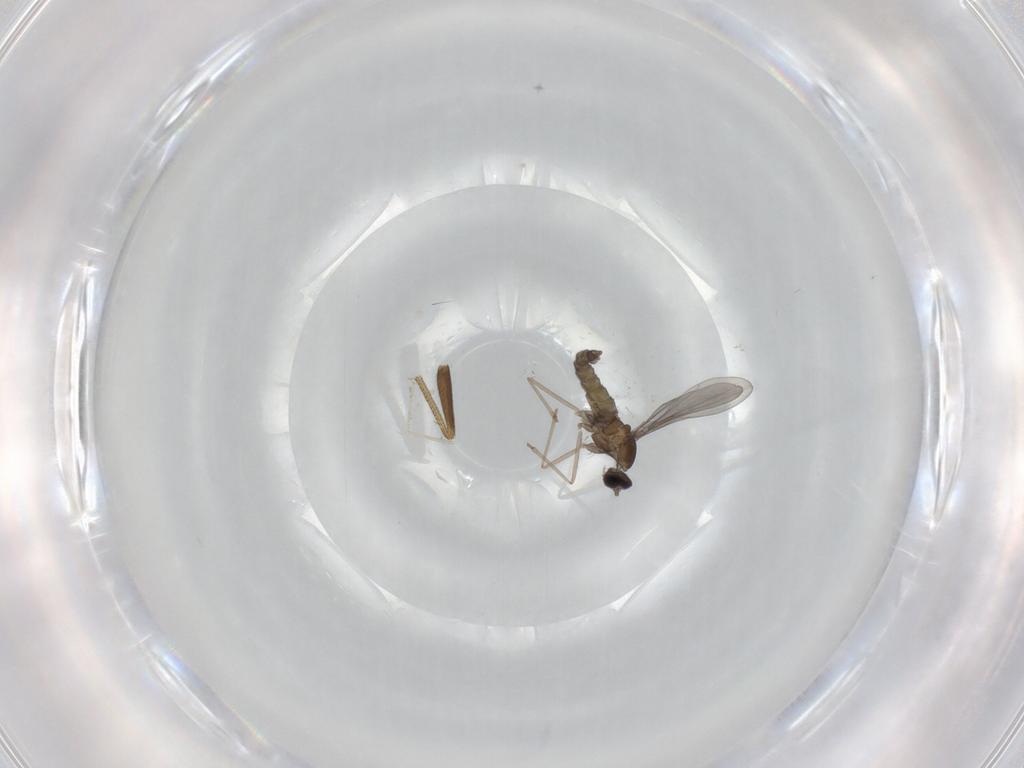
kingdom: Animalia
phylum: Arthropoda
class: Insecta
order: Diptera
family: Dolichopodidae
